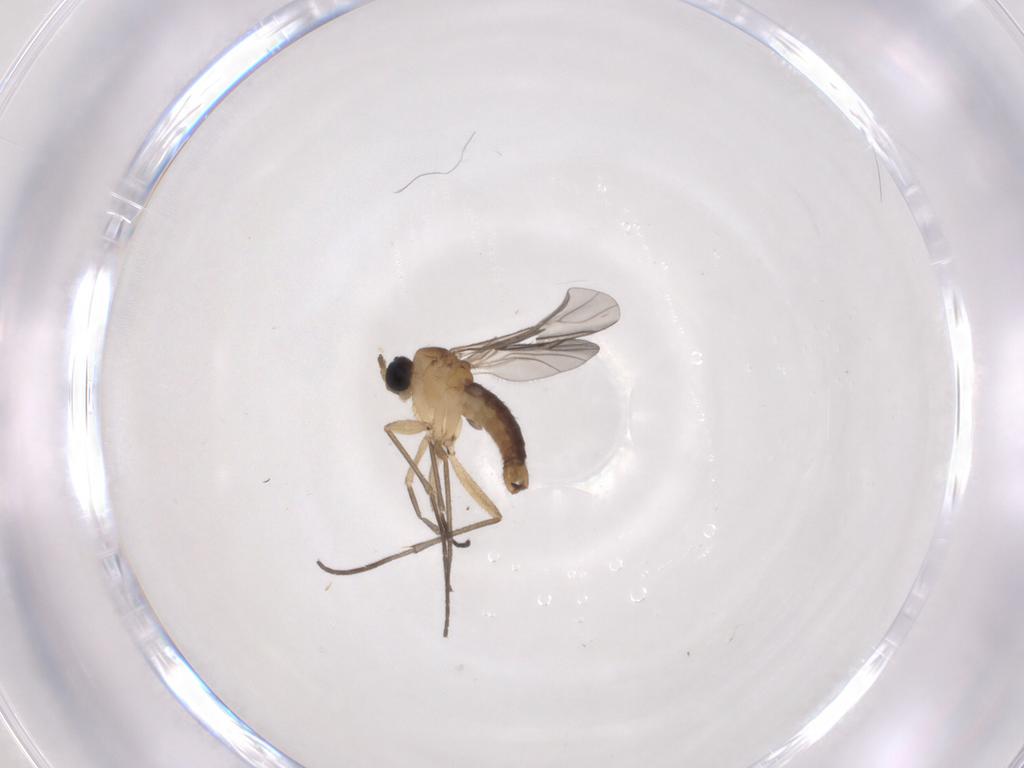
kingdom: Animalia
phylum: Arthropoda
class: Insecta
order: Diptera
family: Sciaridae
